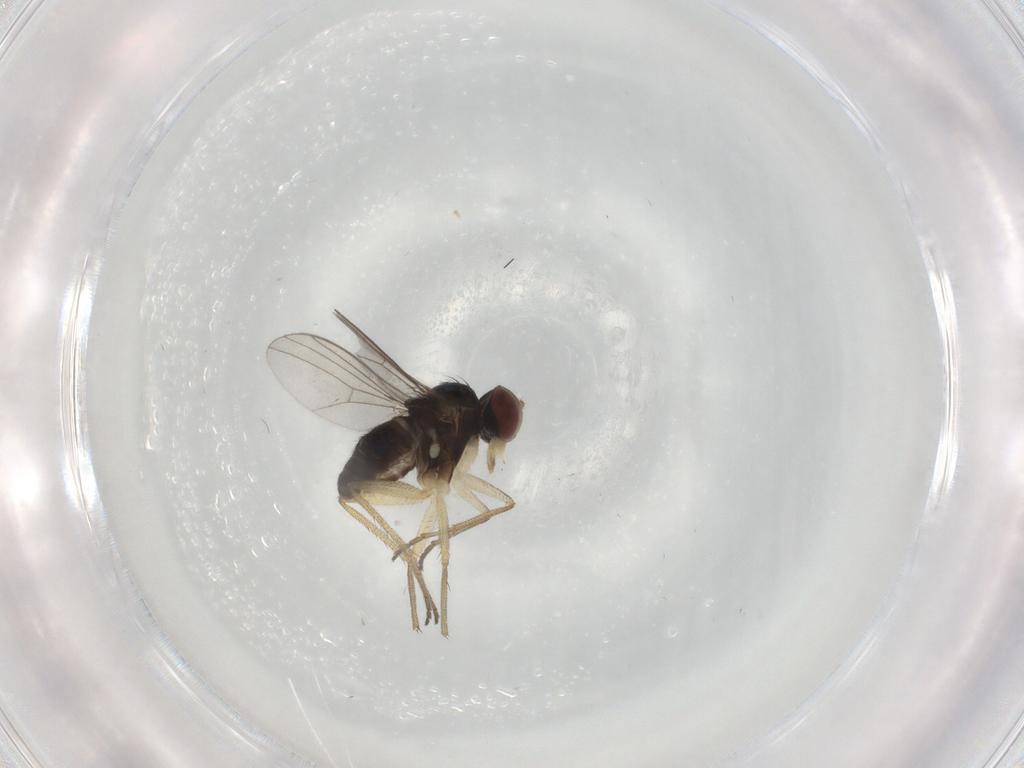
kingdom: Animalia
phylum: Arthropoda
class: Insecta
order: Diptera
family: Dolichopodidae
